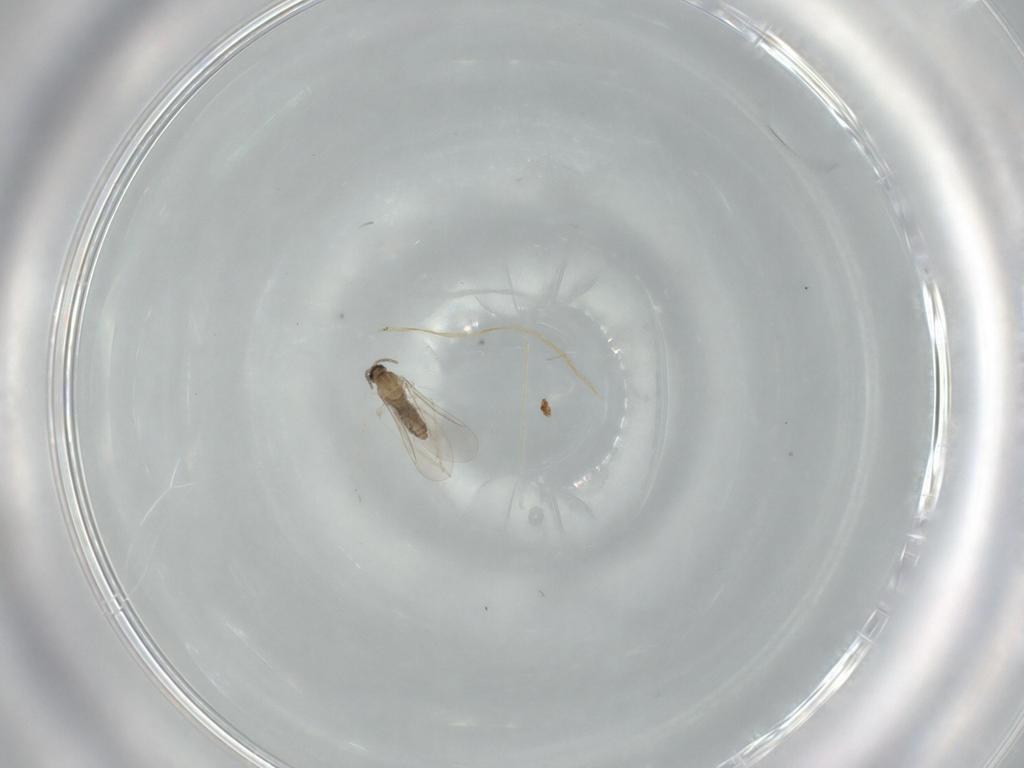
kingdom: Animalia
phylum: Arthropoda
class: Insecta
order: Diptera
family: Cecidomyiidae
